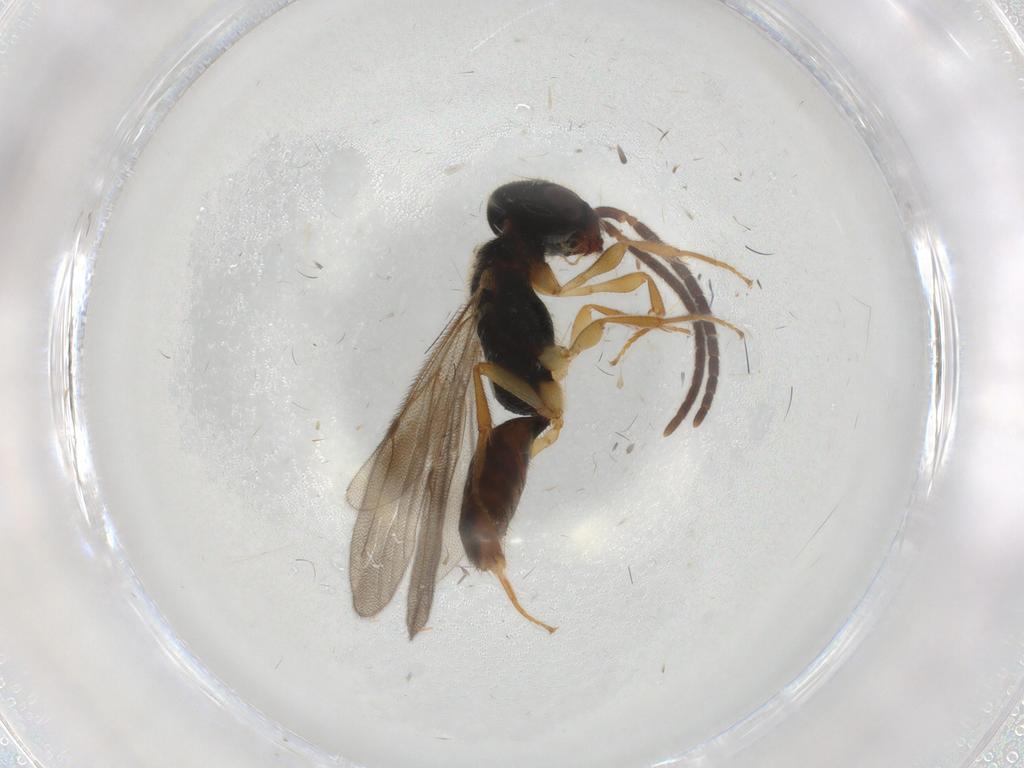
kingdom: Animalia
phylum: Arthropoda
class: Insecta
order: Hymenoptera
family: Bethylidae
